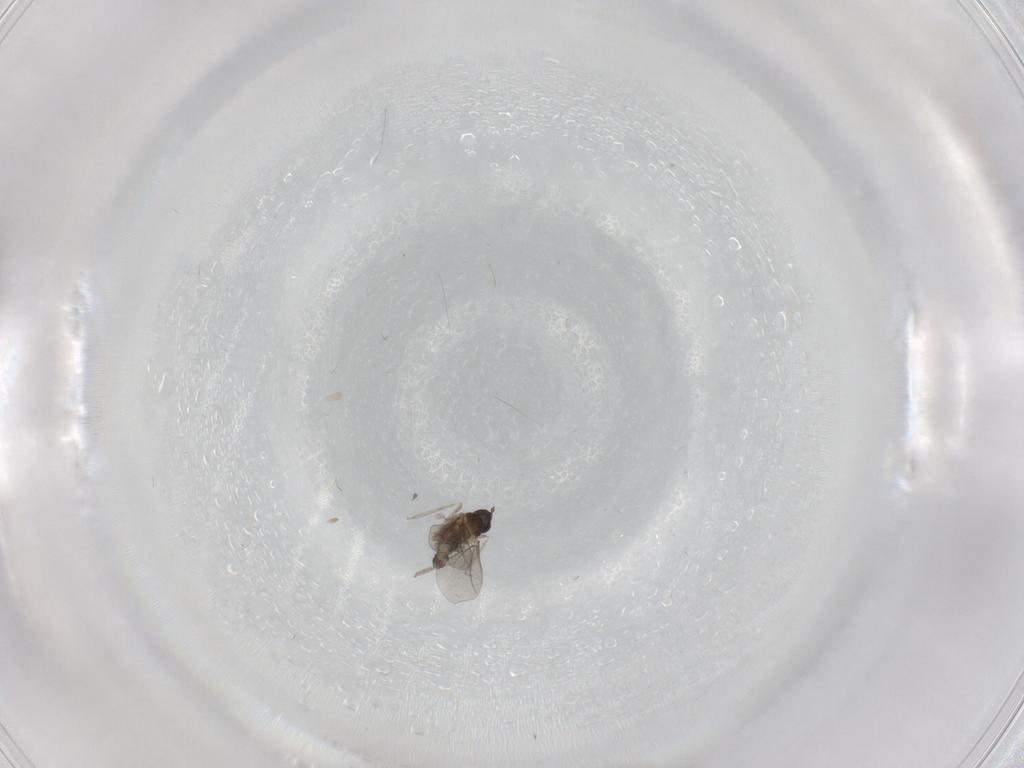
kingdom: Animalia
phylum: Arthropoda
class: Insecta
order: Diptera
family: Cecidomyiidae
